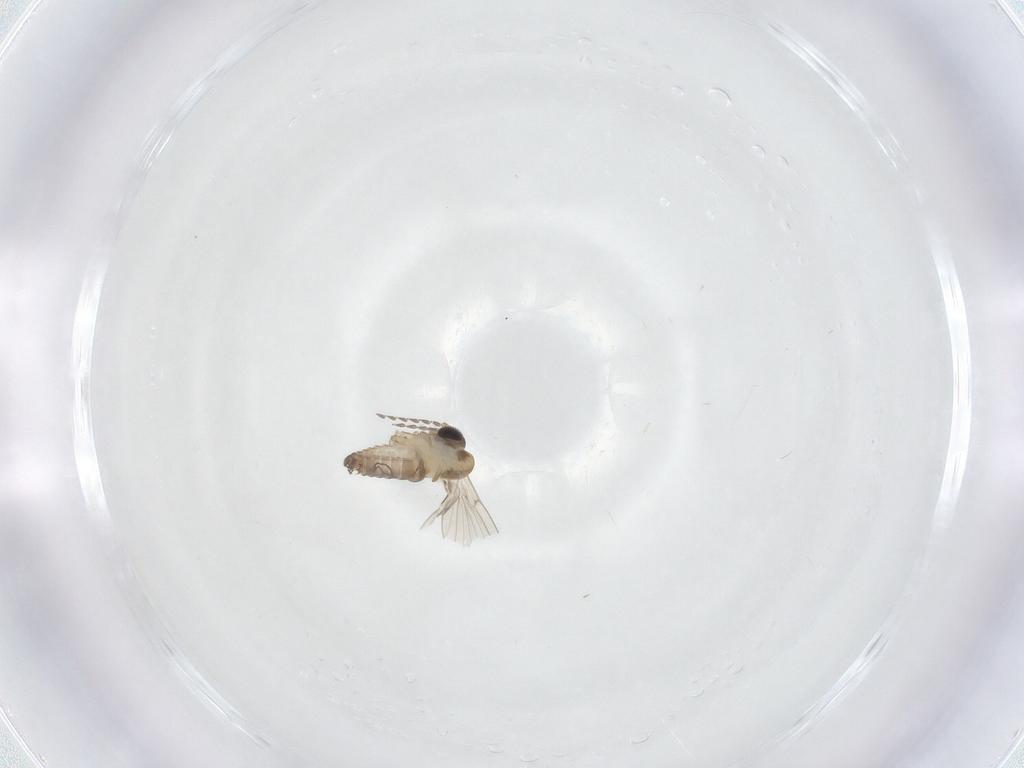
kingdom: Animalia
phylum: Arthropoda
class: Insecta
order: Diptera
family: Psychodidae
